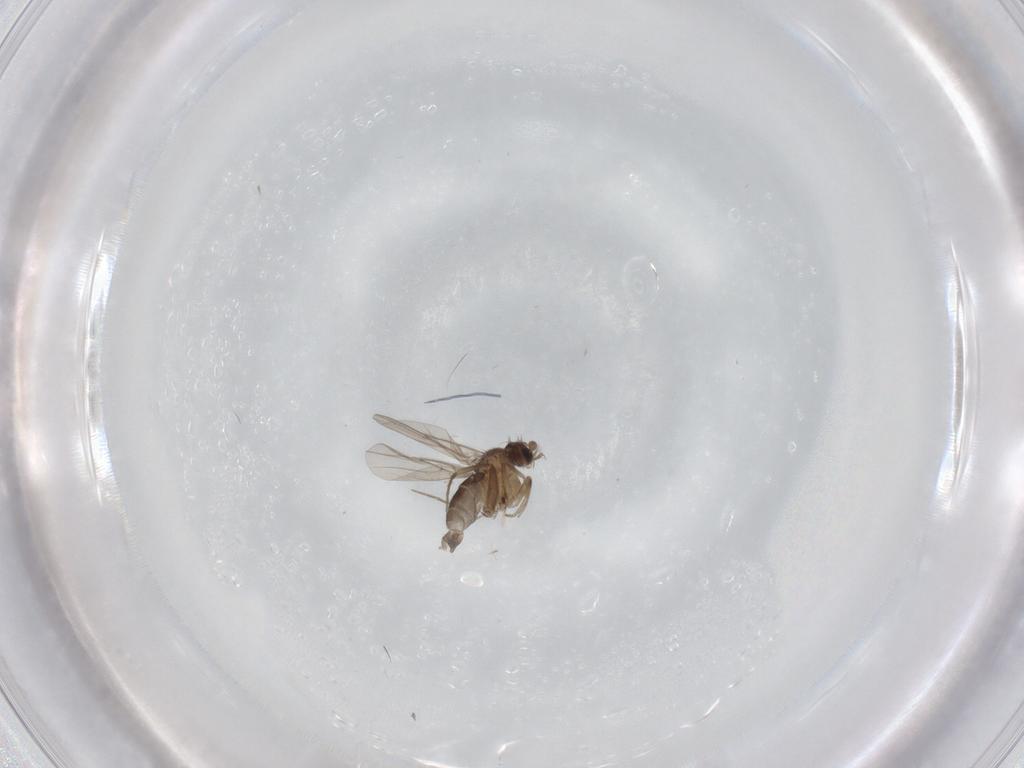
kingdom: Animalia
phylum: Arthropoda
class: Insecta
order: Diptera
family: Phoridae
